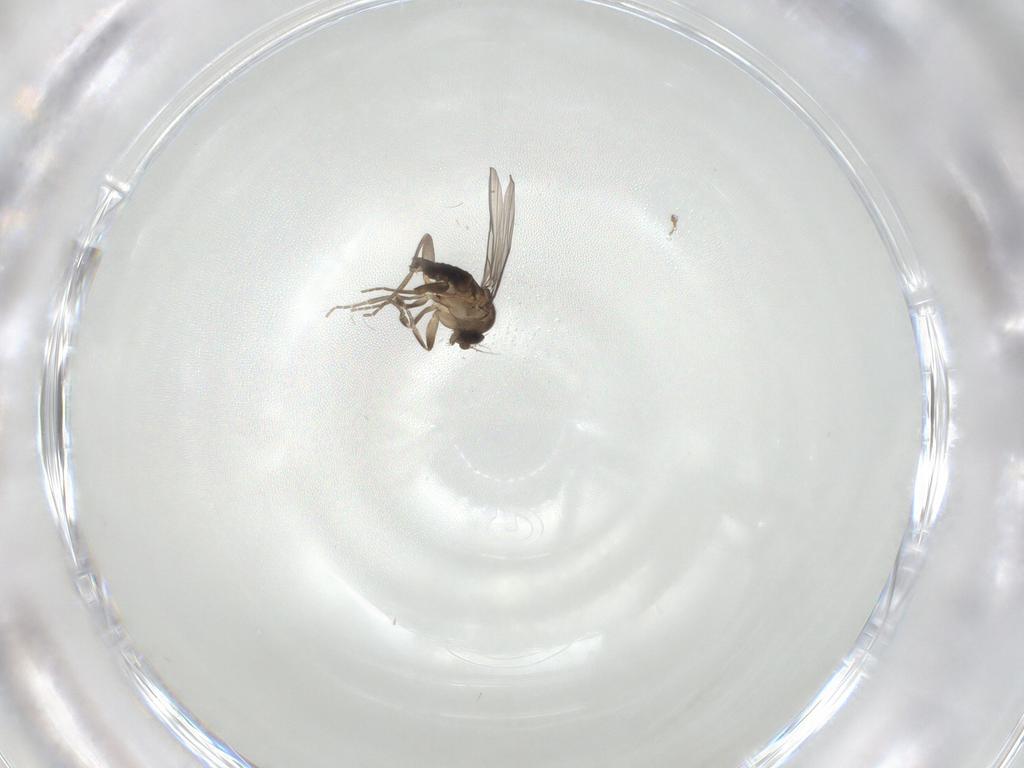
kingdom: Animalia
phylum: Arthropoda
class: Insecta
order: Diptera
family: Phoridae
